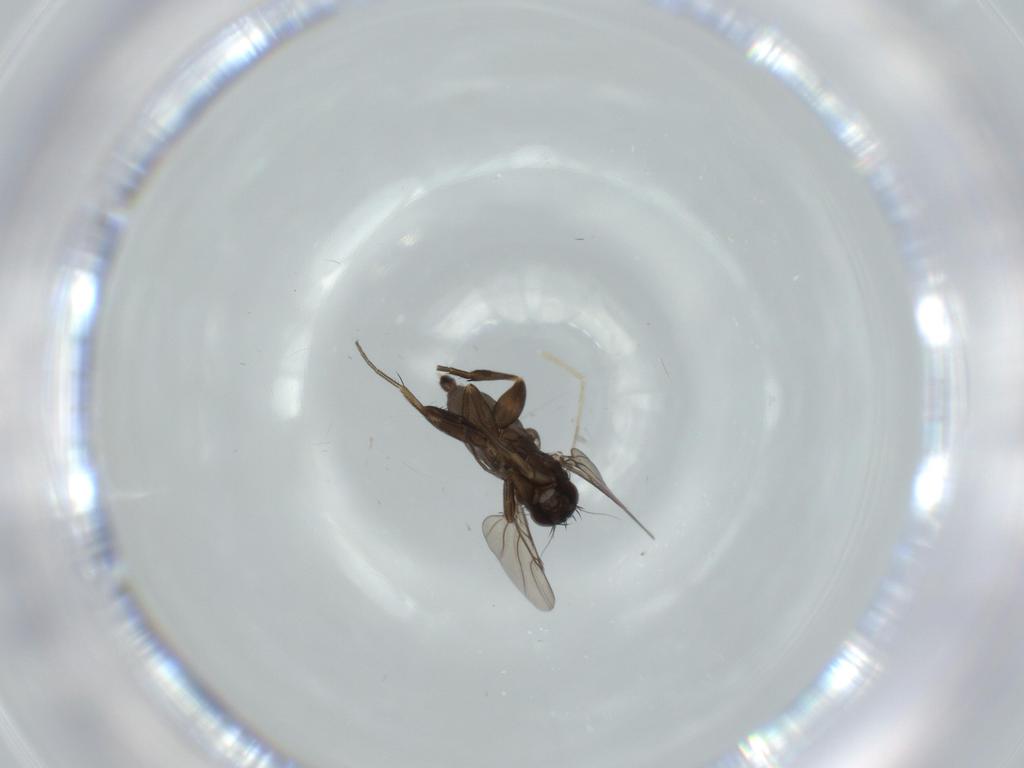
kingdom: Animalia
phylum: Arthropoda
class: Insecta
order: Diptera
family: Phoridae
